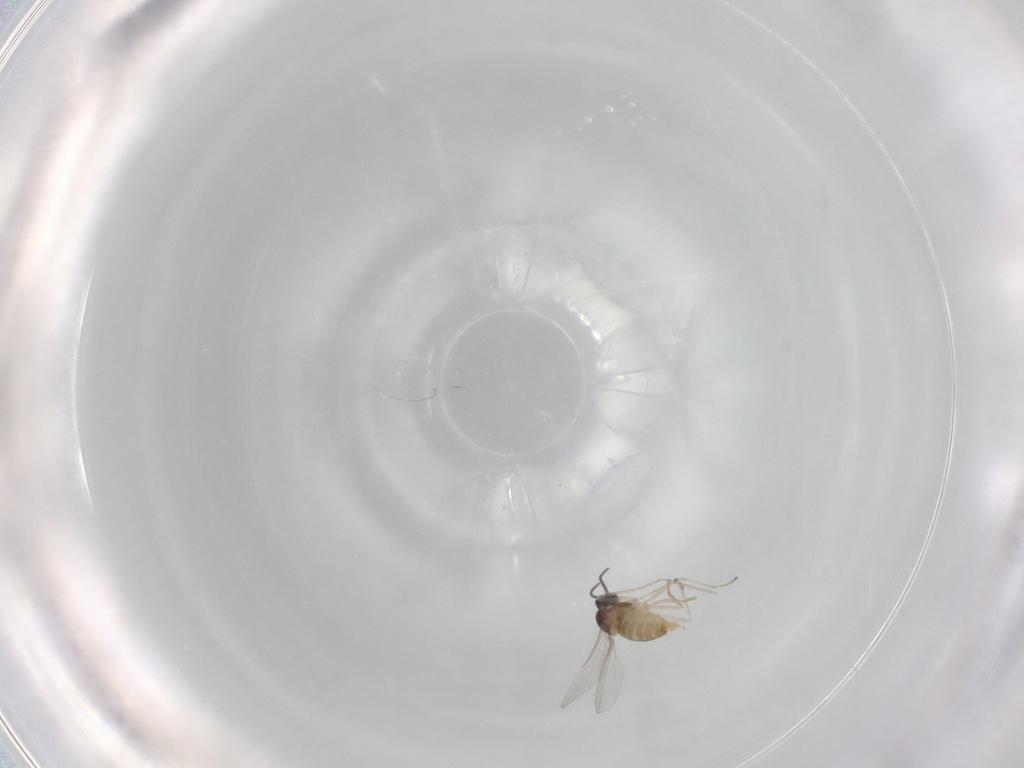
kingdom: Animalia
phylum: Arthropoda
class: Insecta
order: Diptera
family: Cecidomyiidae
